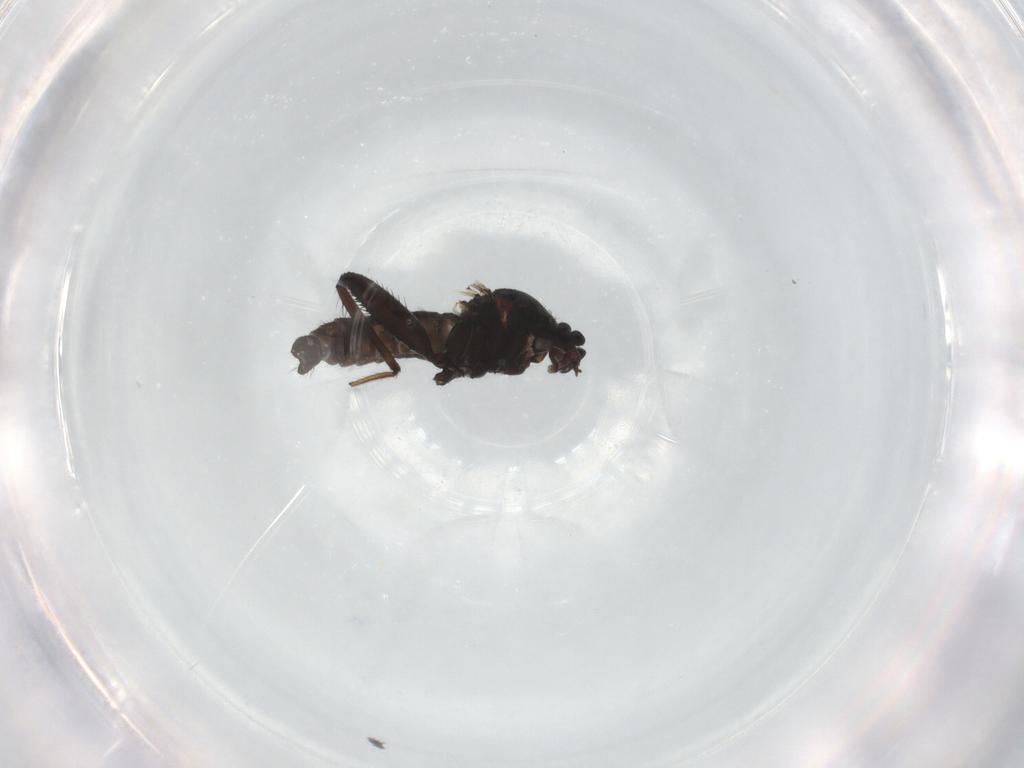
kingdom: Animalia
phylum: Arthropoda
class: Insecta
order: Diptera
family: Ceratopogonidae
